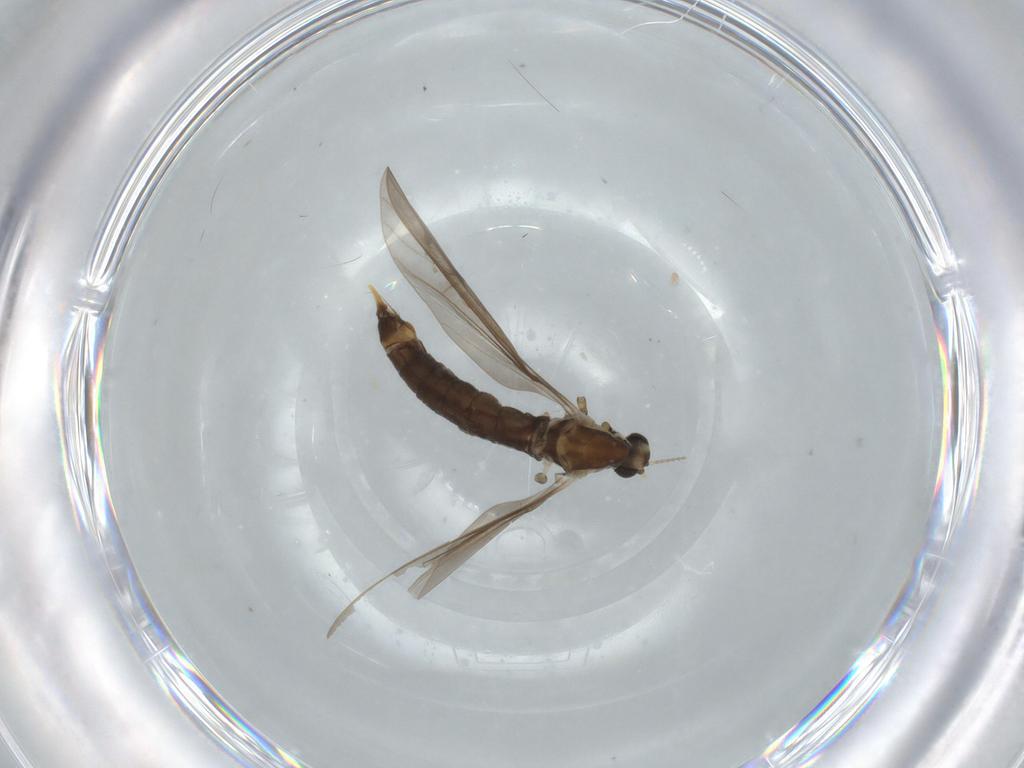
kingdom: Animalia
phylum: Arthropoda
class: Insecta
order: Diptera
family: Limoniidae
